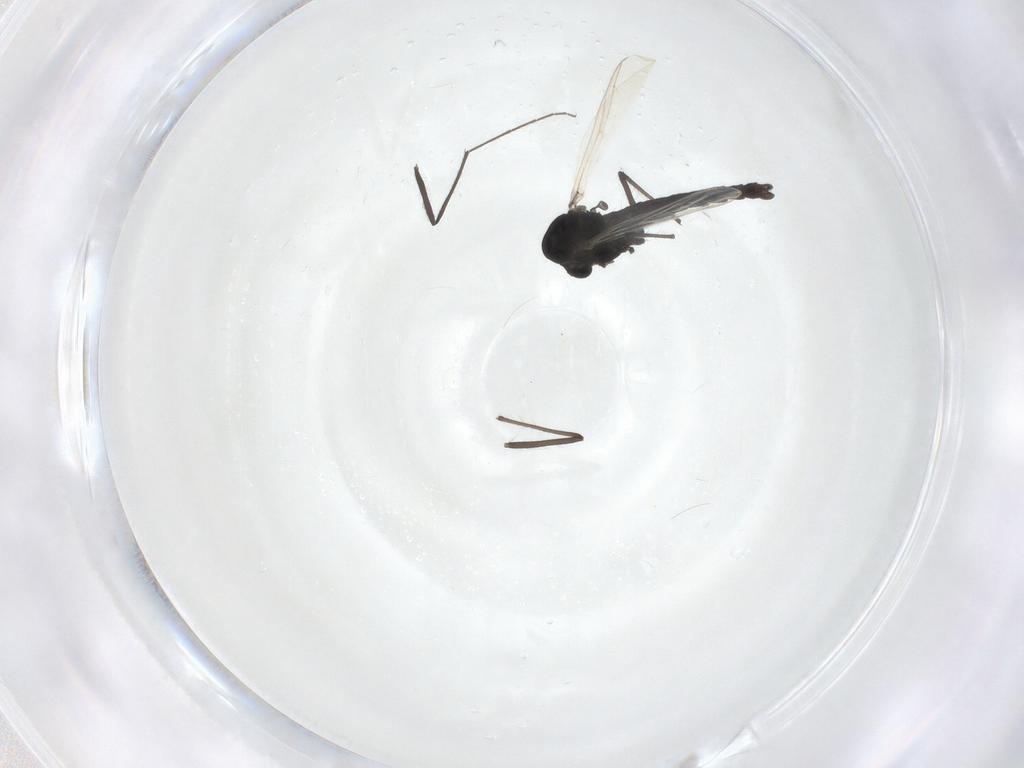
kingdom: Animalia
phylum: Arthropoda
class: Insecta
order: Diptera
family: Chironomidae
